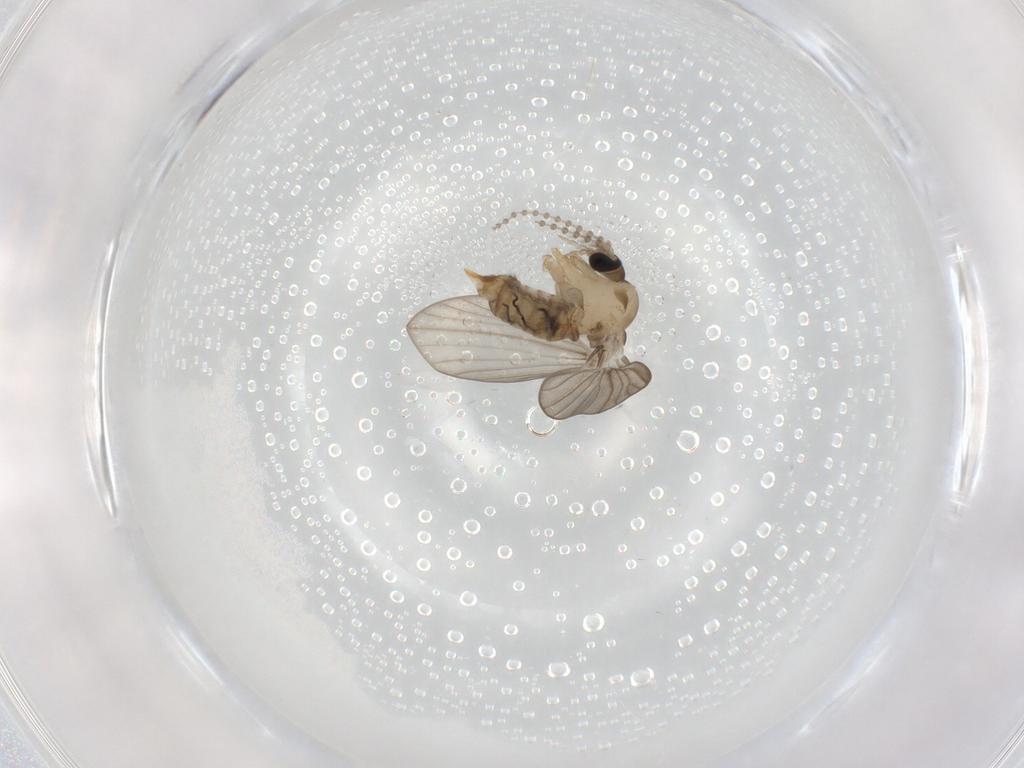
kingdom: Animalia
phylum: Arthropoda
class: Insecta
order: Diptera
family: Psychodidae
